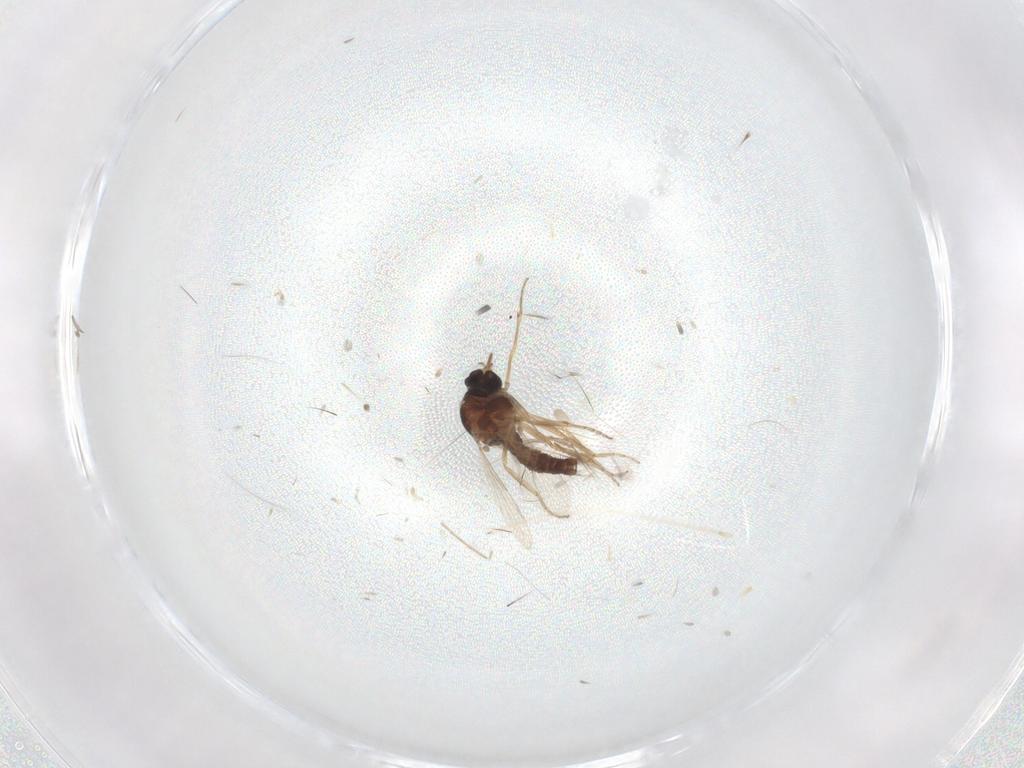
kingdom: Animalia
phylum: Arthropoda
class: Insecta
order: Diptera
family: Ceratopogonidae
